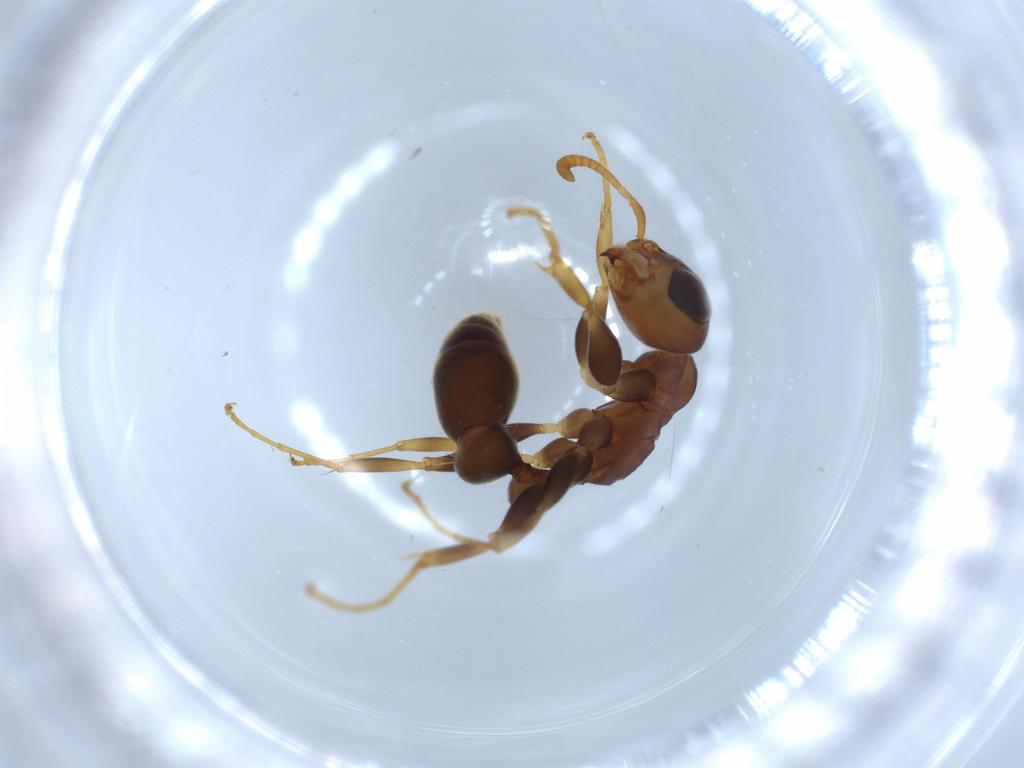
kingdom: Animalia
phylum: Arthropoda
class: Insecta
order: Hymenoptera
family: Formicidae
